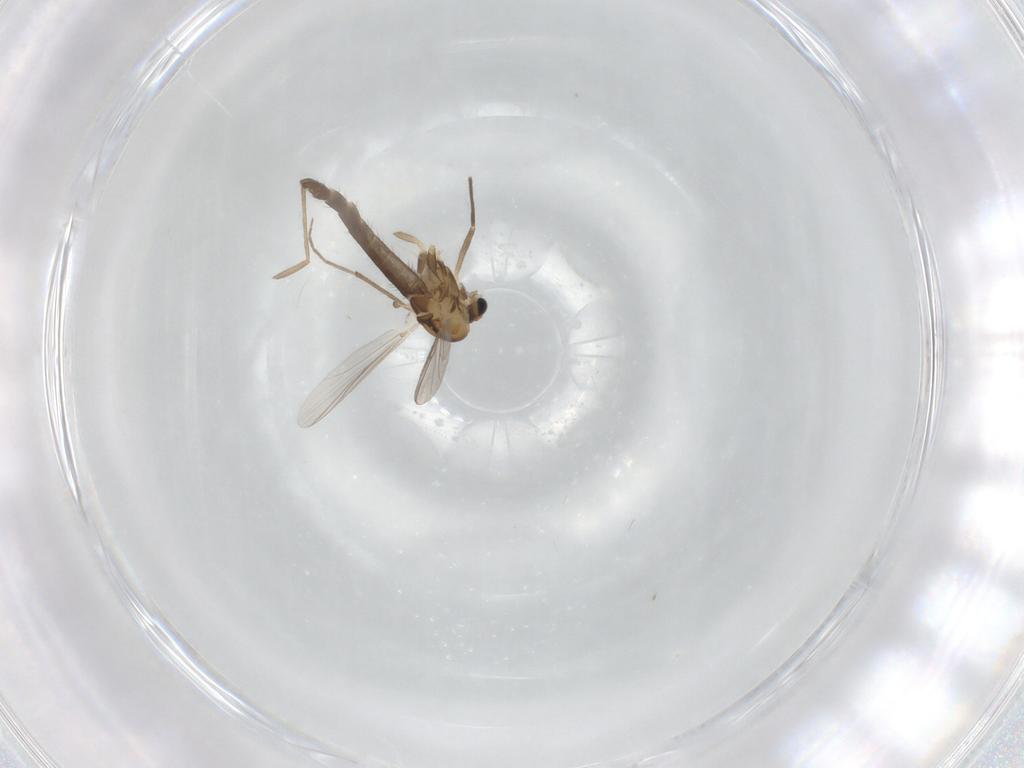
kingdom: Animalia
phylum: Arthropoda
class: Insecta
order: Diptera
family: Chironomidae
